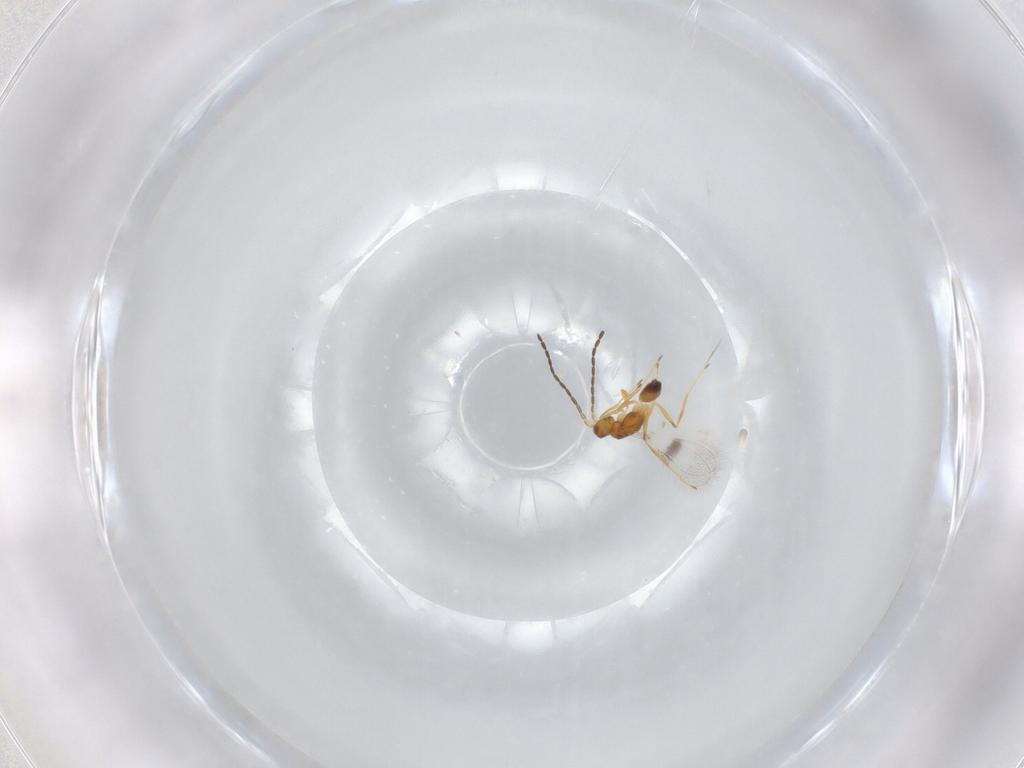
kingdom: Animalia
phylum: Arthropoda
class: Insecta
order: Hymenoptera
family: Mymaridae
